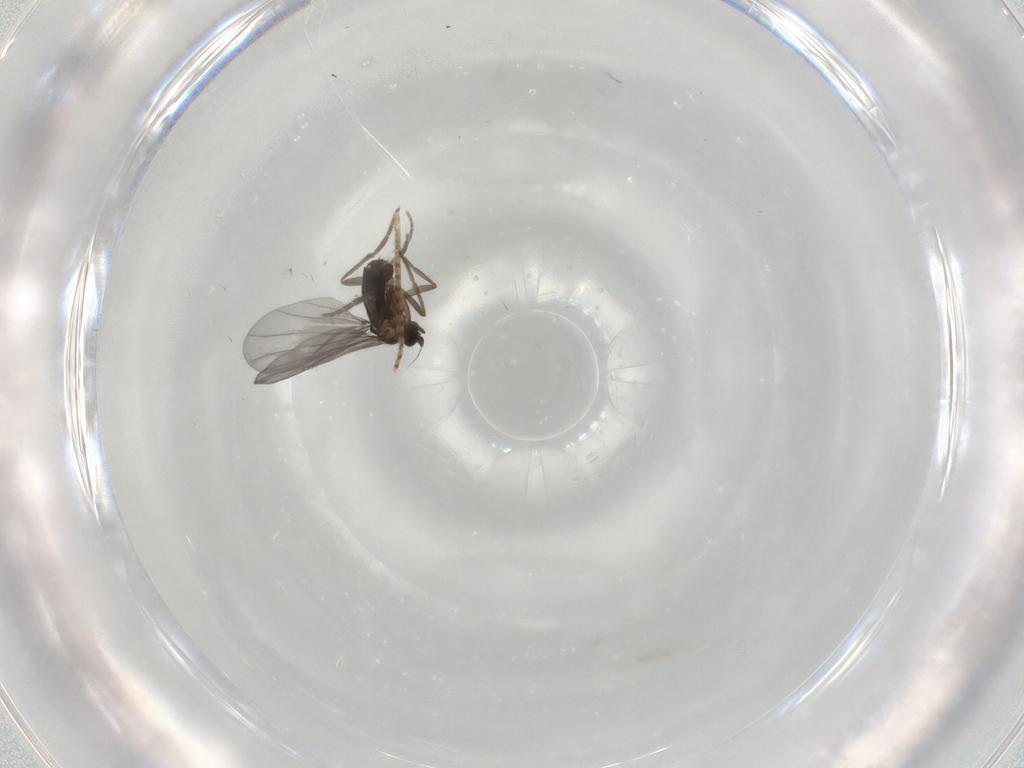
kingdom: Animalia
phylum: Arthropoda
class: Insecta
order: Diptera
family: Phoridae
